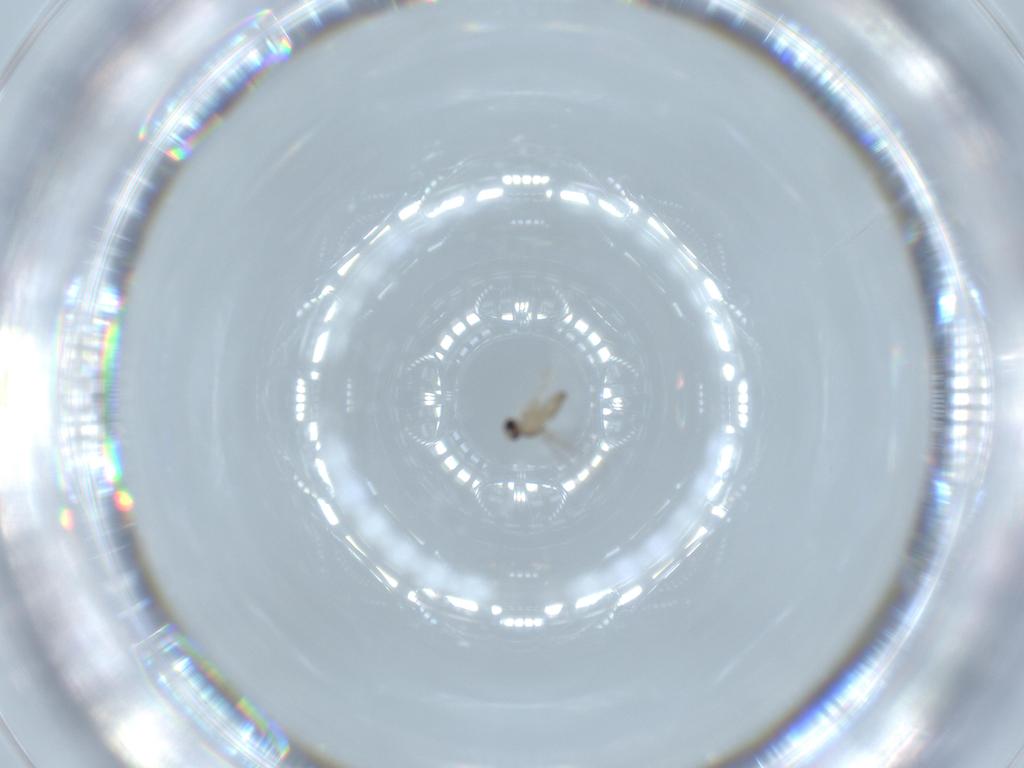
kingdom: Animalia
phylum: Arthropoda
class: Insecta
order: Diptera
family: Cecidomyiidae
